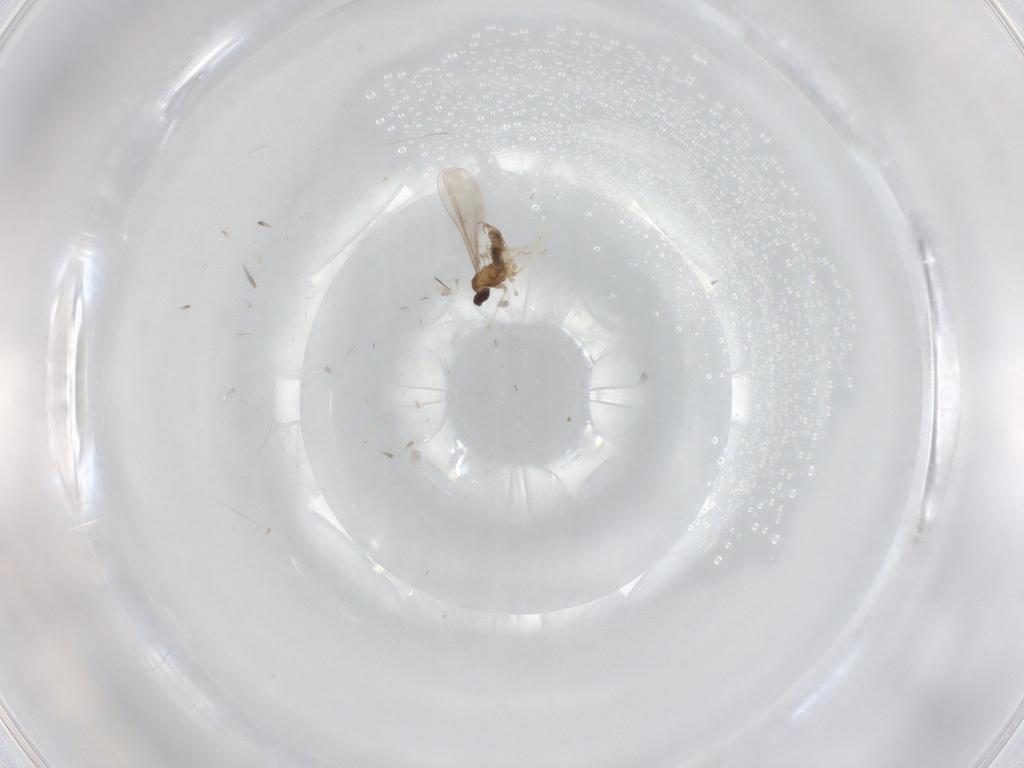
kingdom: Animalia
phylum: Arthropoda
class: Insecta
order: Diptera
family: Cecidomyiidae
